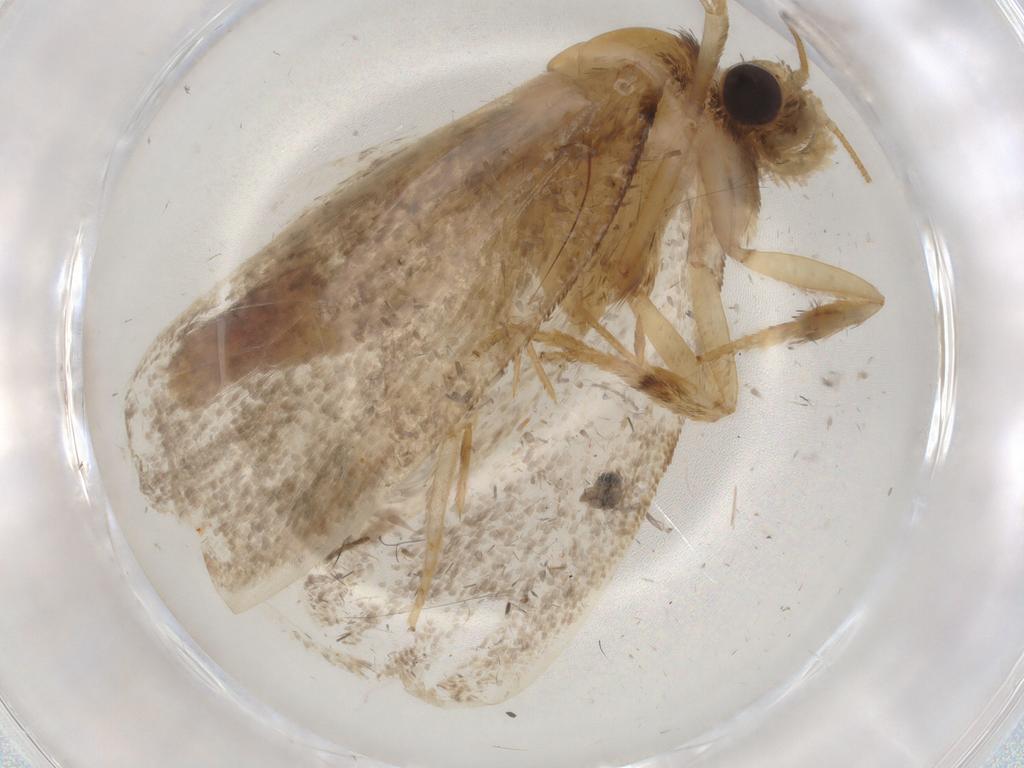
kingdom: Animalia
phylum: Arthropoda
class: Insecta
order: Lepidoptera
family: Tineidae
